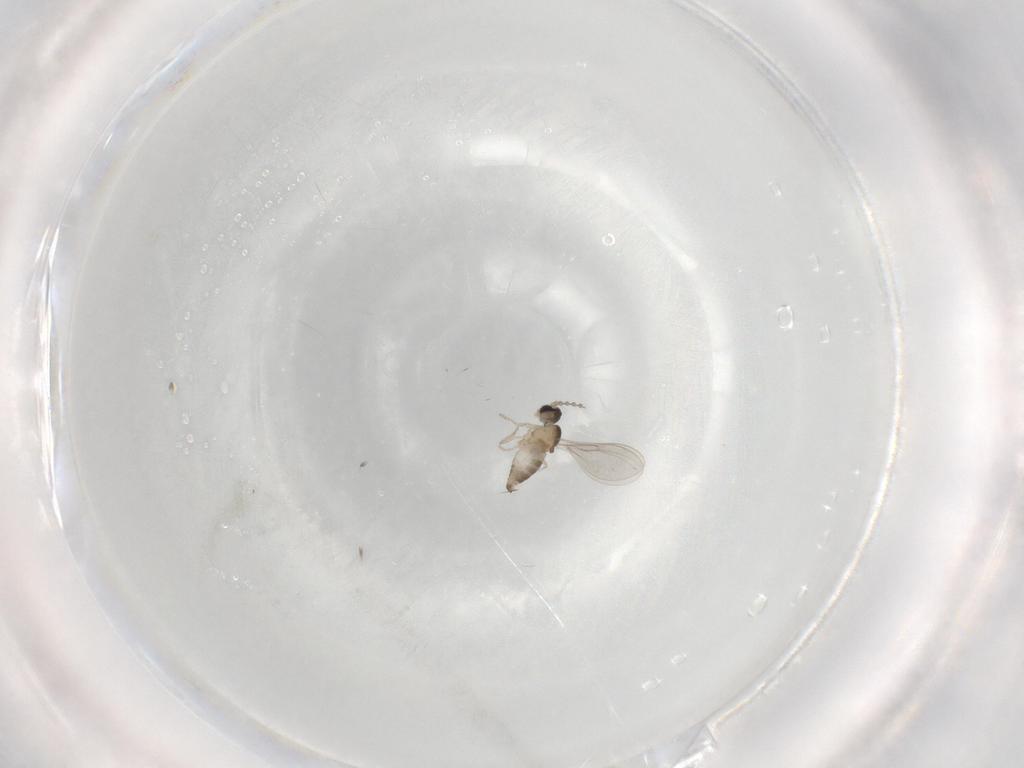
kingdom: Animalia
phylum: Arthropoda
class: Insecta
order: Diptera
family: Cecidomyiidae
